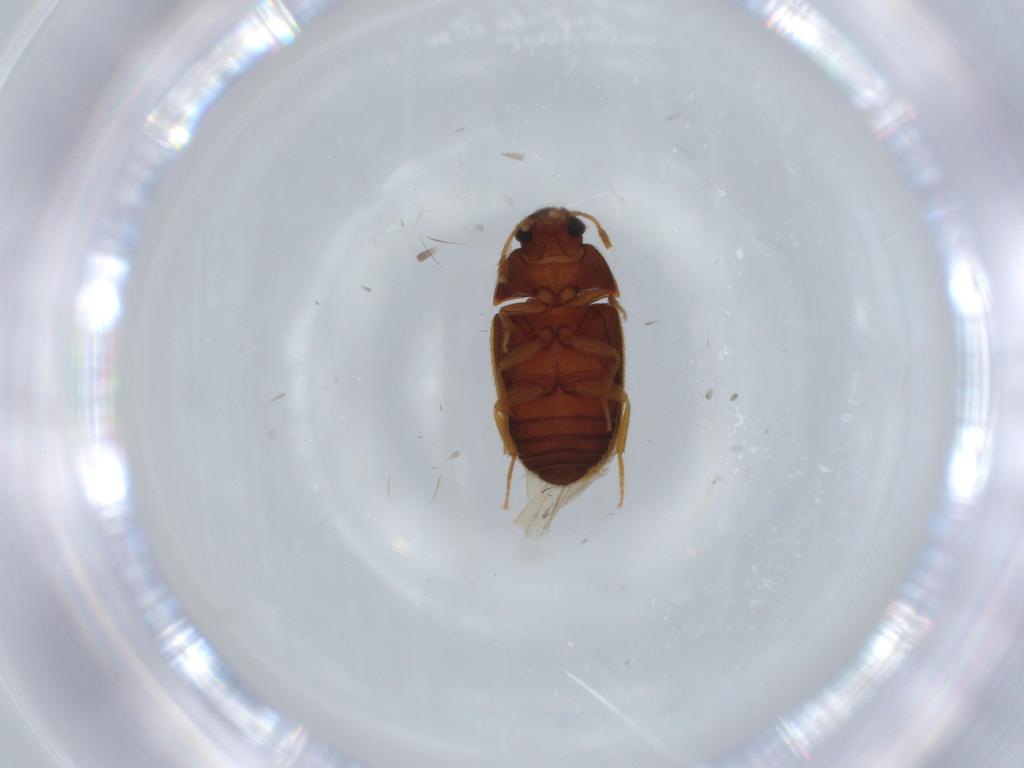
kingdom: Animalia
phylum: Arthropoda
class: Insecta
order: Coleoptera
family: Mycetophagidae
